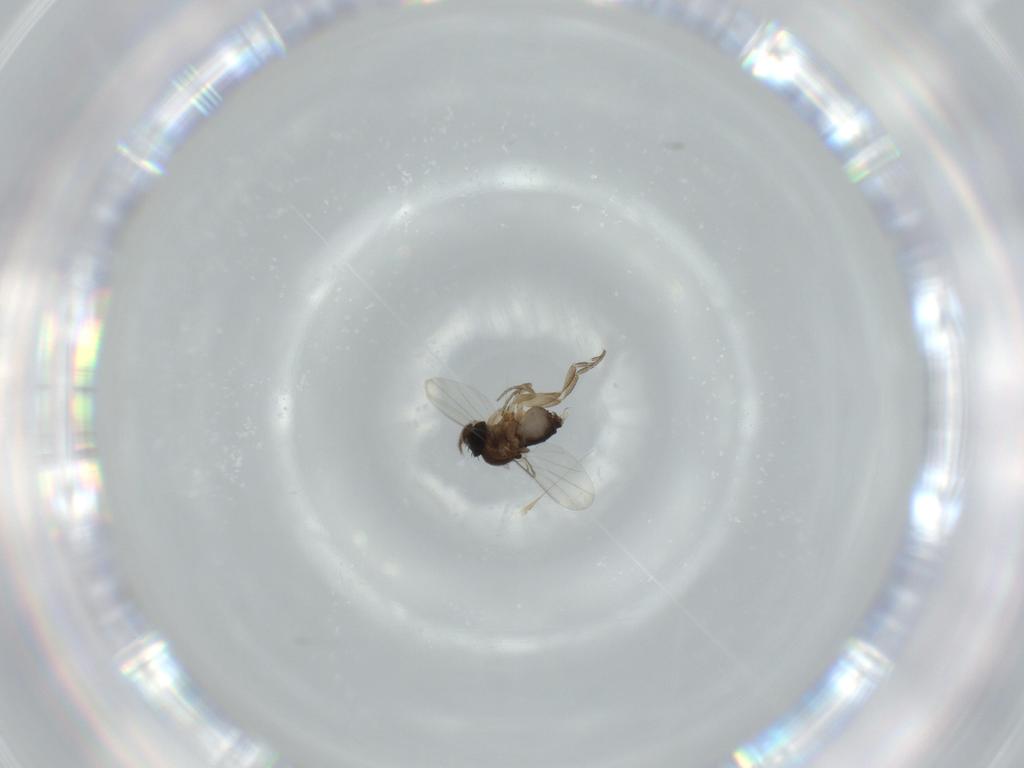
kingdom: Animalia
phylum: Arthropoda
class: Insecta
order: Diptera
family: Phoridae
